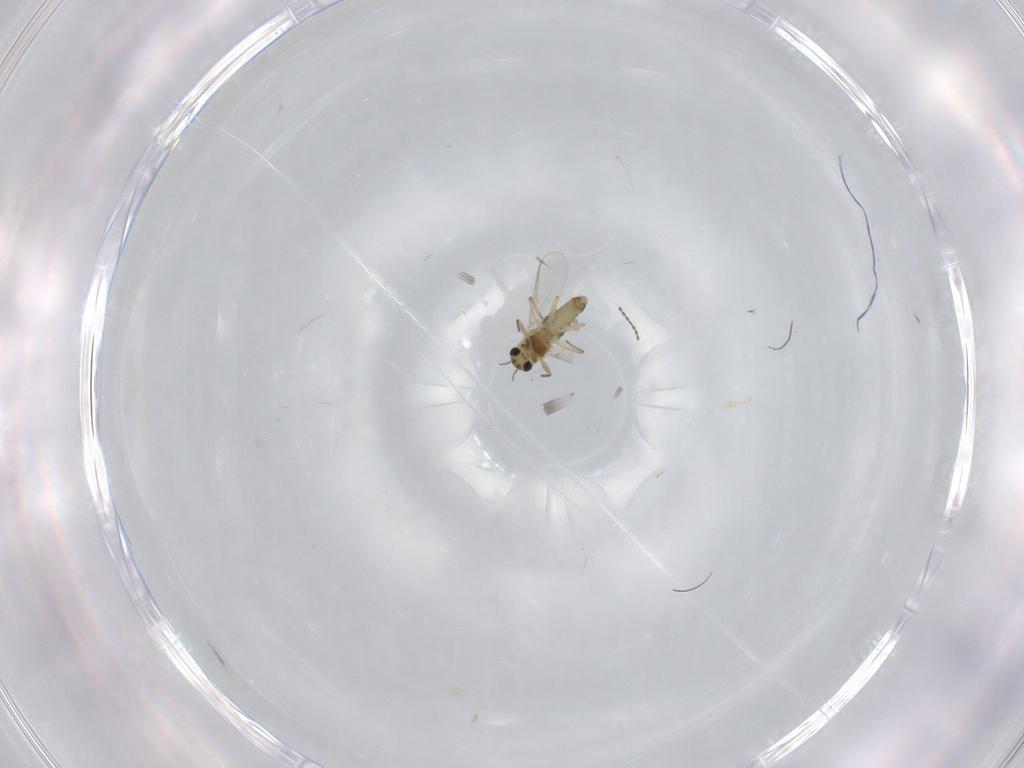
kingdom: Animalia
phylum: Arthropoda
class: Insecta
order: Diptera
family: Chironomidae
